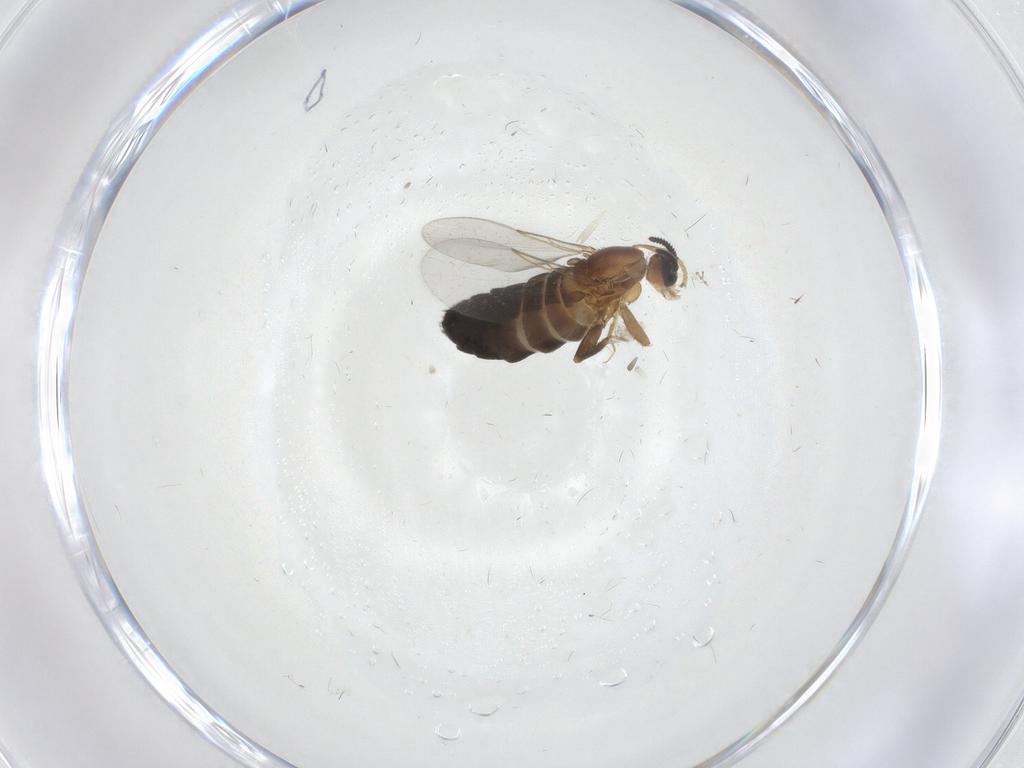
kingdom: Animalia
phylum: Arthropoda
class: Insecta
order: Diptera
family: Scatopsidae
